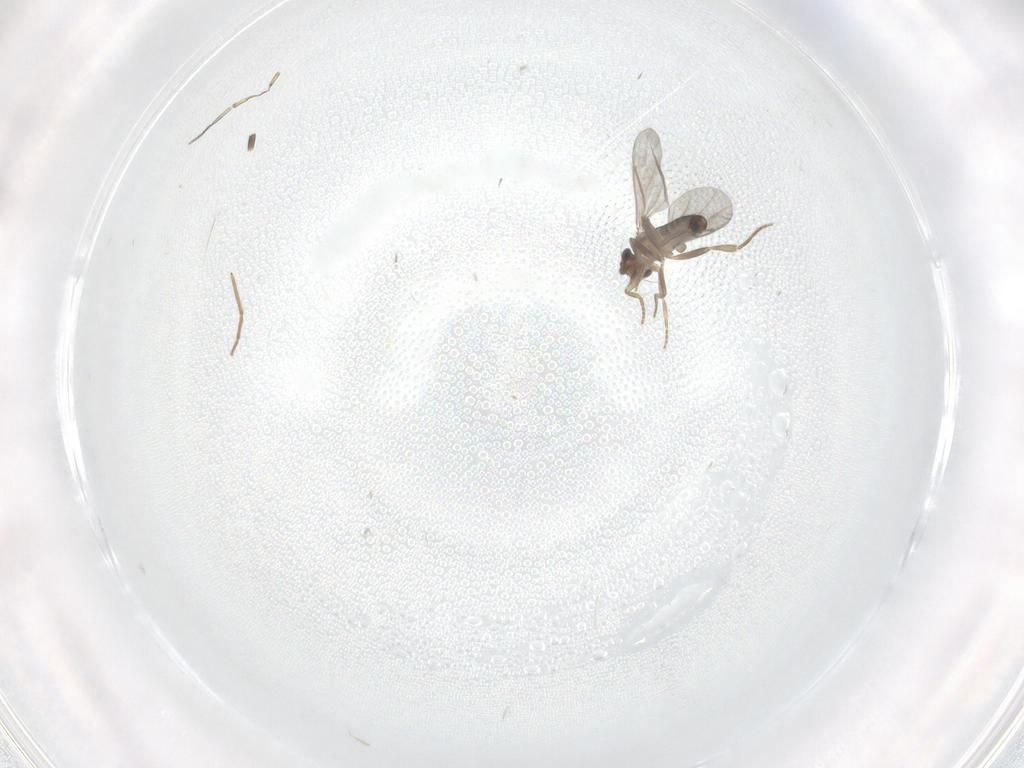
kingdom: Animalia
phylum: Arthropoda
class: Insecta
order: Diptera
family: Chironomidae
